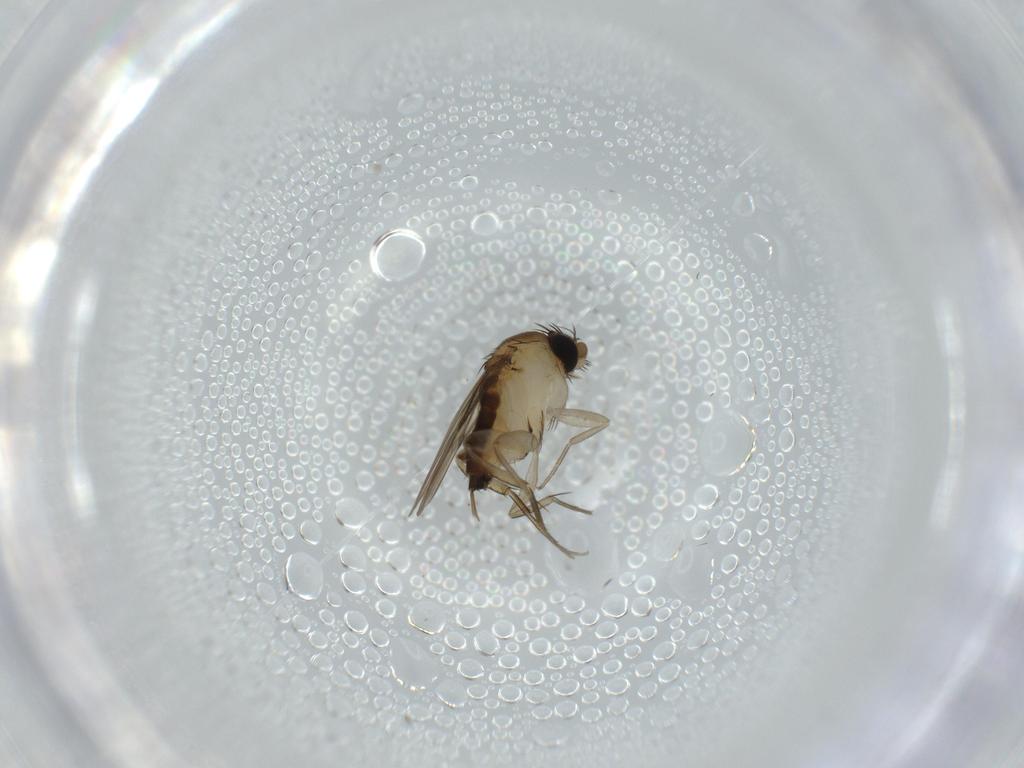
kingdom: Animalia
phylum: Arthropoda
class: Insecta
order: Diptera
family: Phoridae
